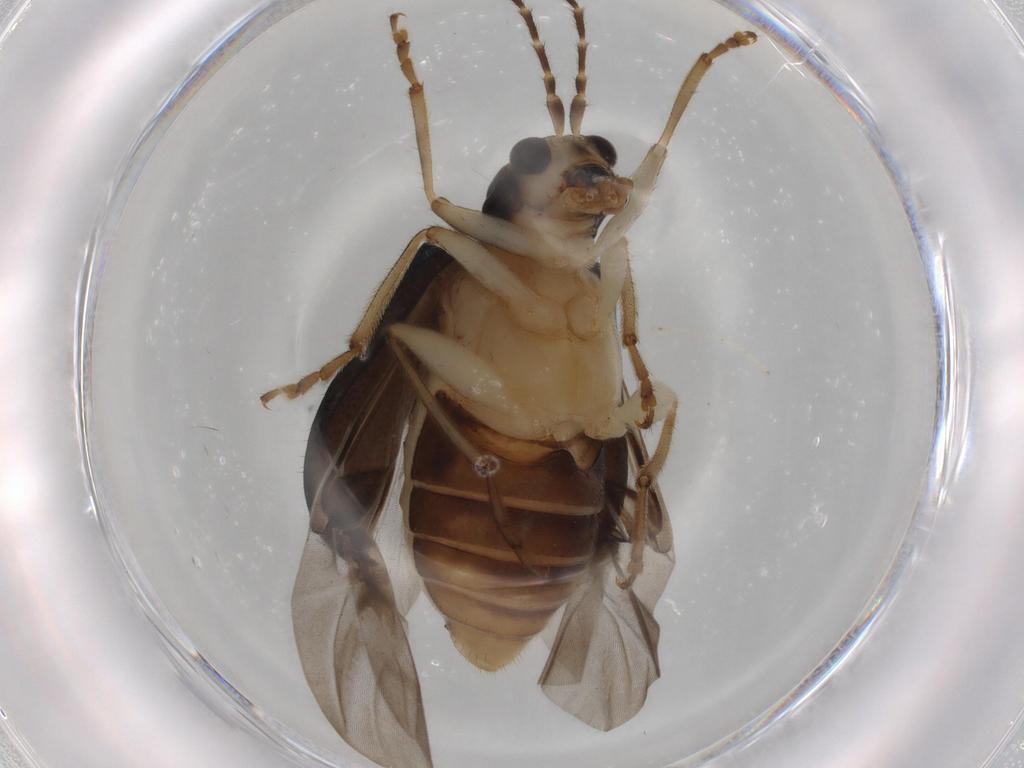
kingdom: Animalia
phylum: Arthropoda
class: Insecta
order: Coleoptera
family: Chrysomelidae
